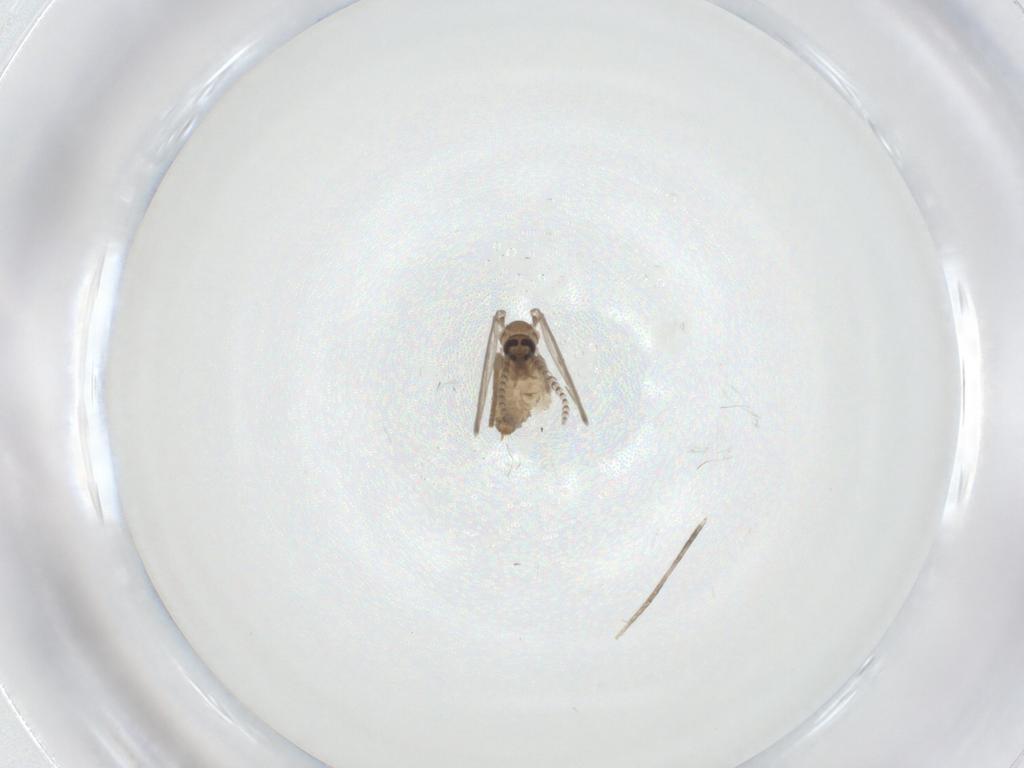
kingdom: Animalia
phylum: Arthropoda
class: Insecta
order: Diptera
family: Psychodidae
